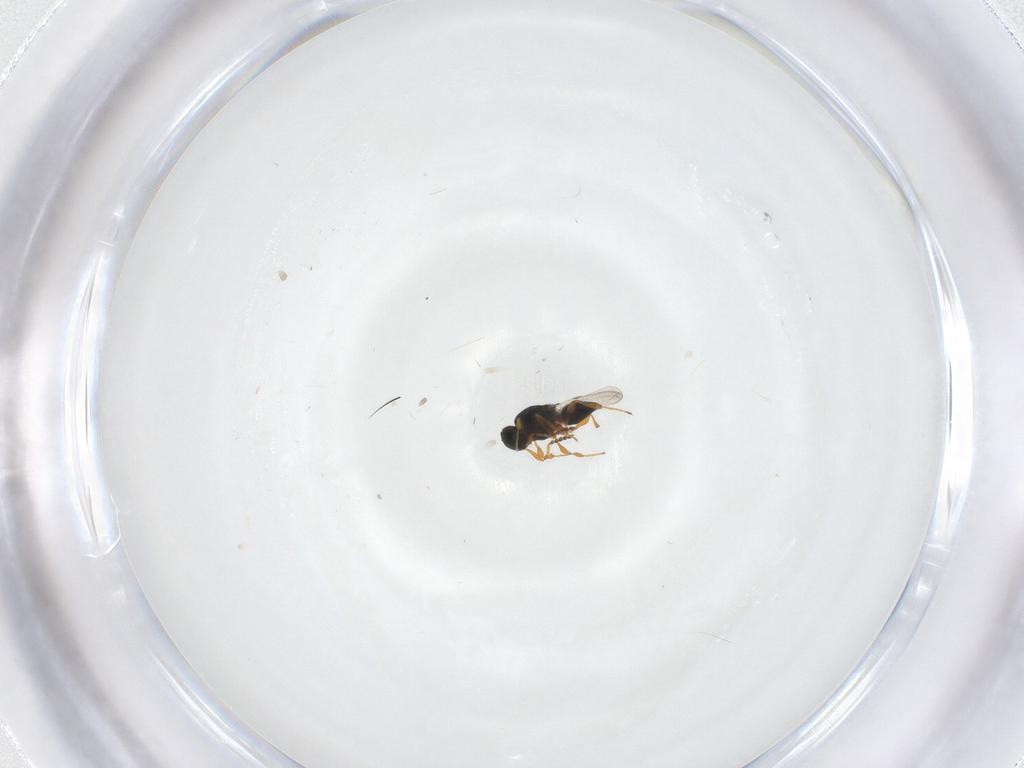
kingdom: Animalia
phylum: Arthropoda
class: Insecta
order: Hymenoptera
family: Platygastridae
